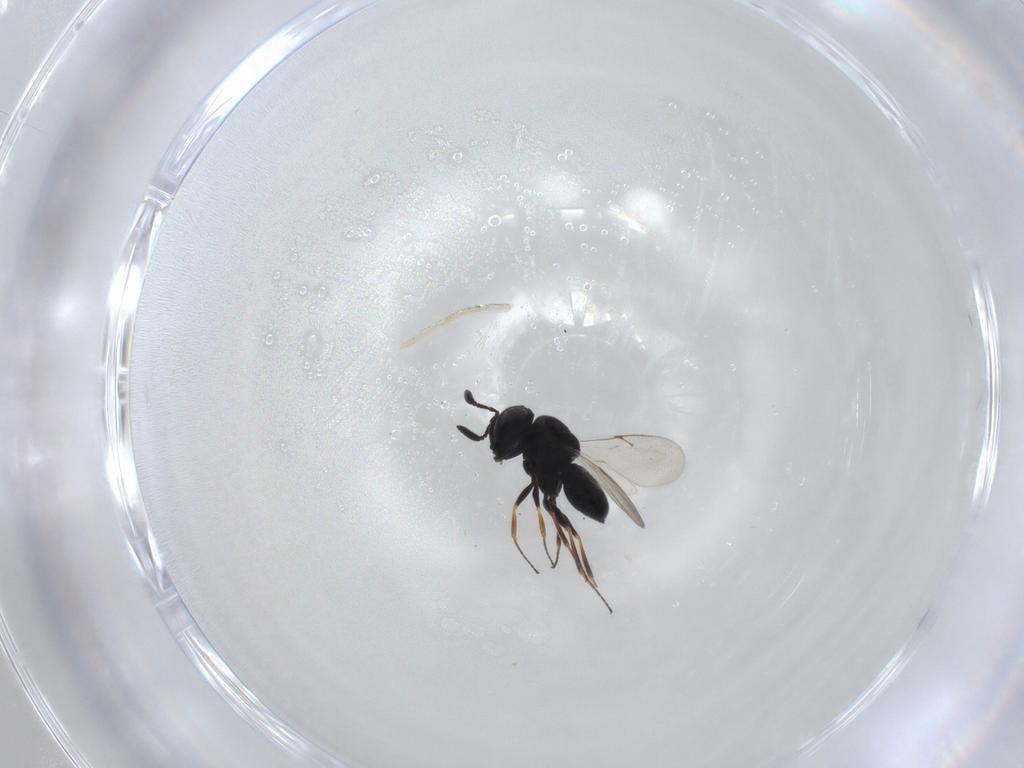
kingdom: Animalia
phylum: Arthropoda
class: Insecta
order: Hymenoptera
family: Scelionidae
